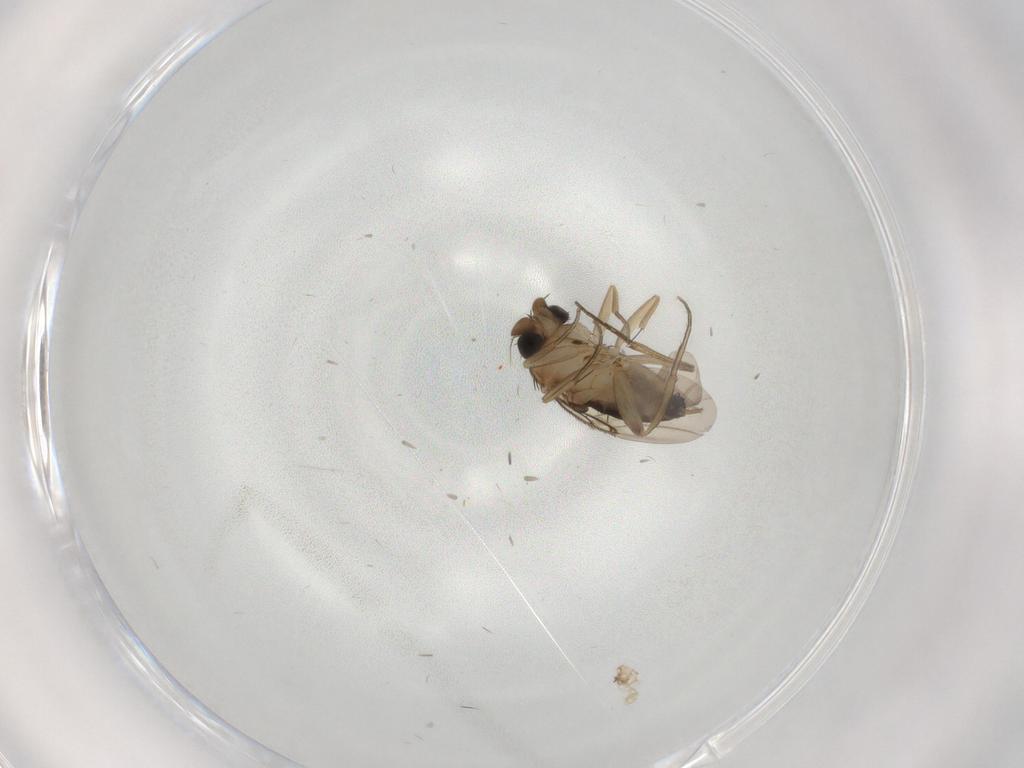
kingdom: Animalia
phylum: Arthropoda
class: Insecta
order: Diptera
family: Phoridae
